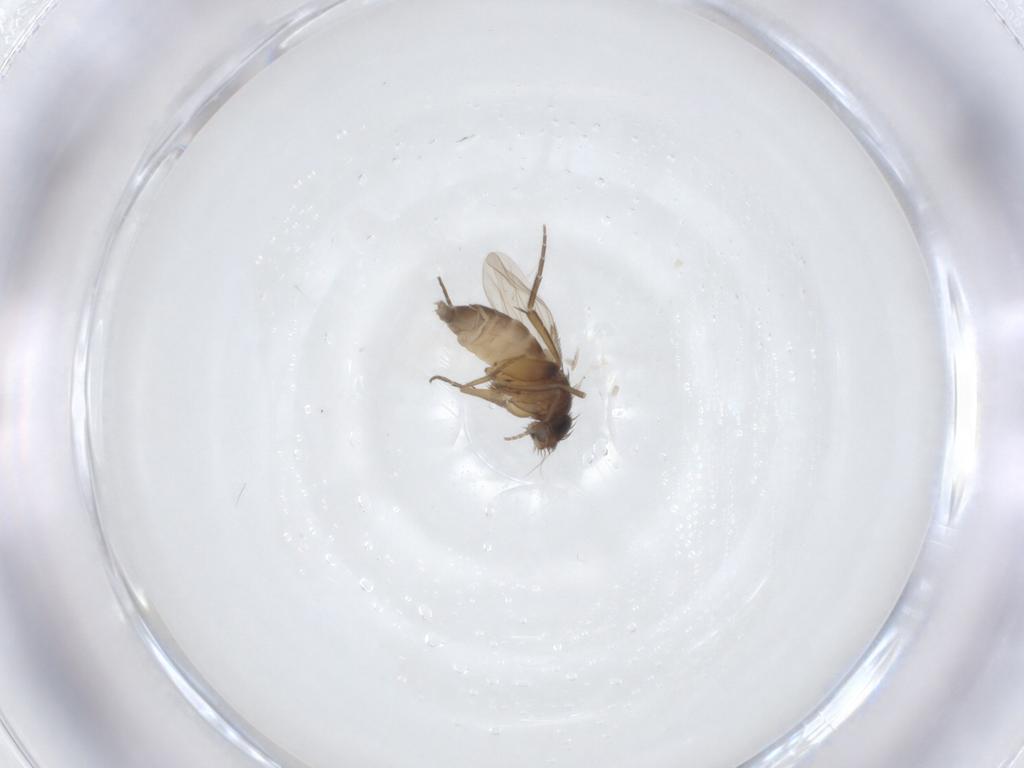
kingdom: Animalia
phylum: Arthropoda
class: Insecta
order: Diptera
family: Phoridae
